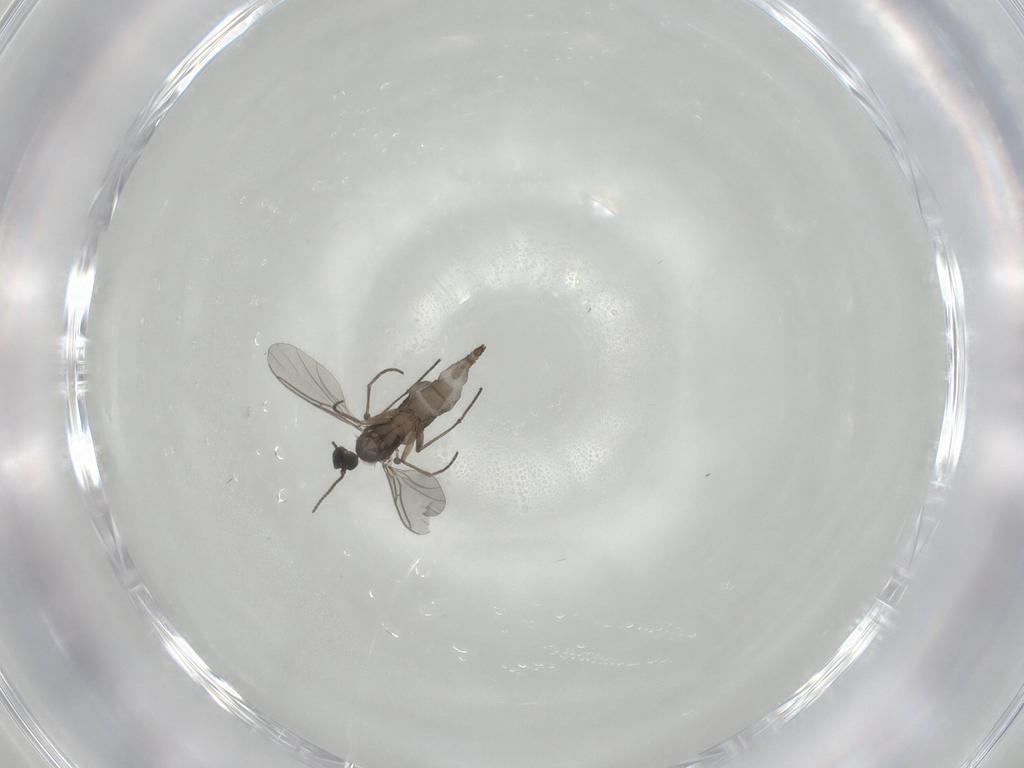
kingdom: Animalia
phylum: Arthropoda
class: Insecta
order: Diptera
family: Sciaridae
